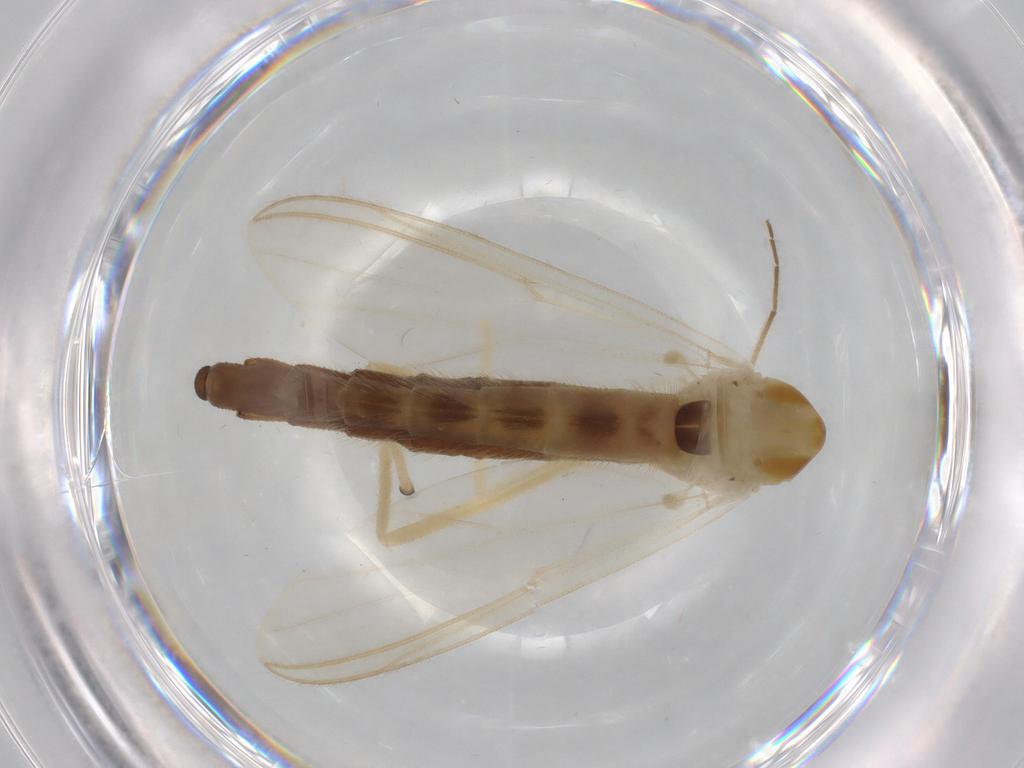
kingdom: Animalia
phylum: Arthropoda
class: Insecta
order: Diptera
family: Chironomidae
